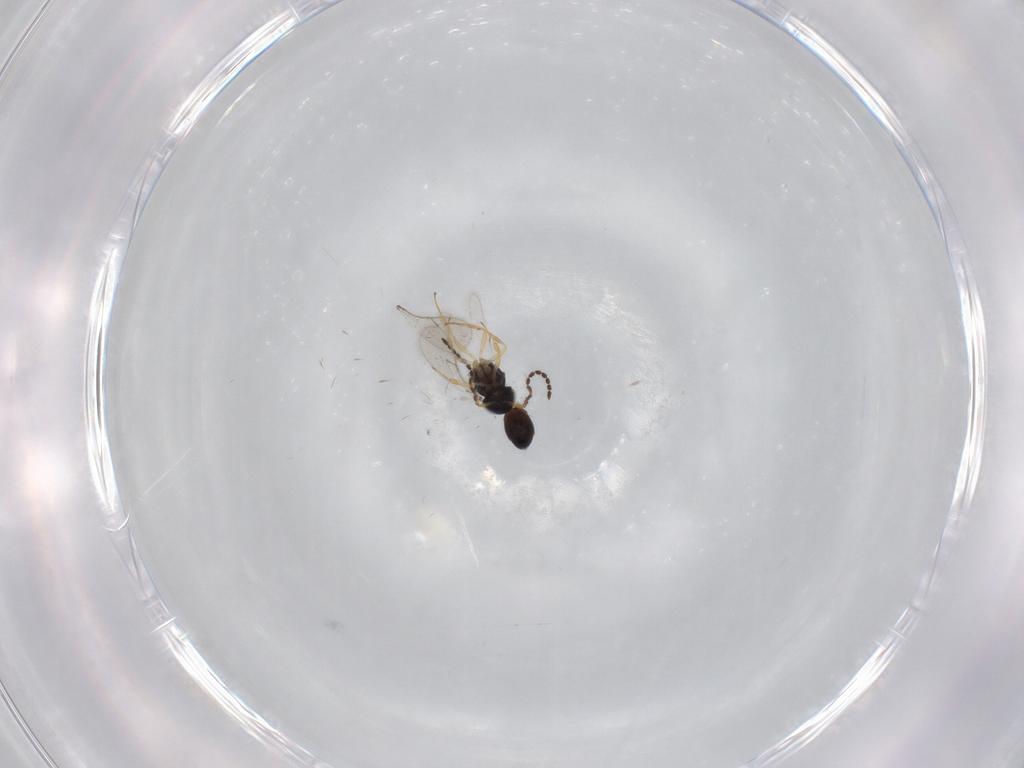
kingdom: Animalia
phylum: Arthropoda
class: Insecta
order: Hymenoptera
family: Scelionidae
